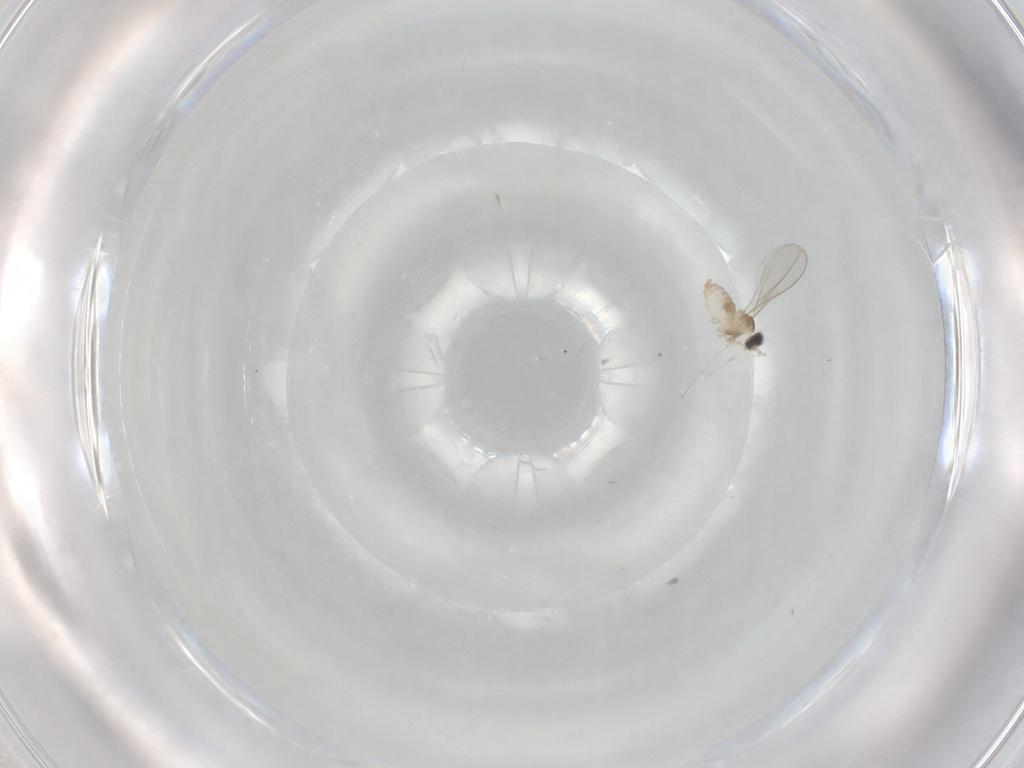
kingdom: Animalia
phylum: Arthropoda
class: Insecta
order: Diptera
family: Cecidomyiidae
